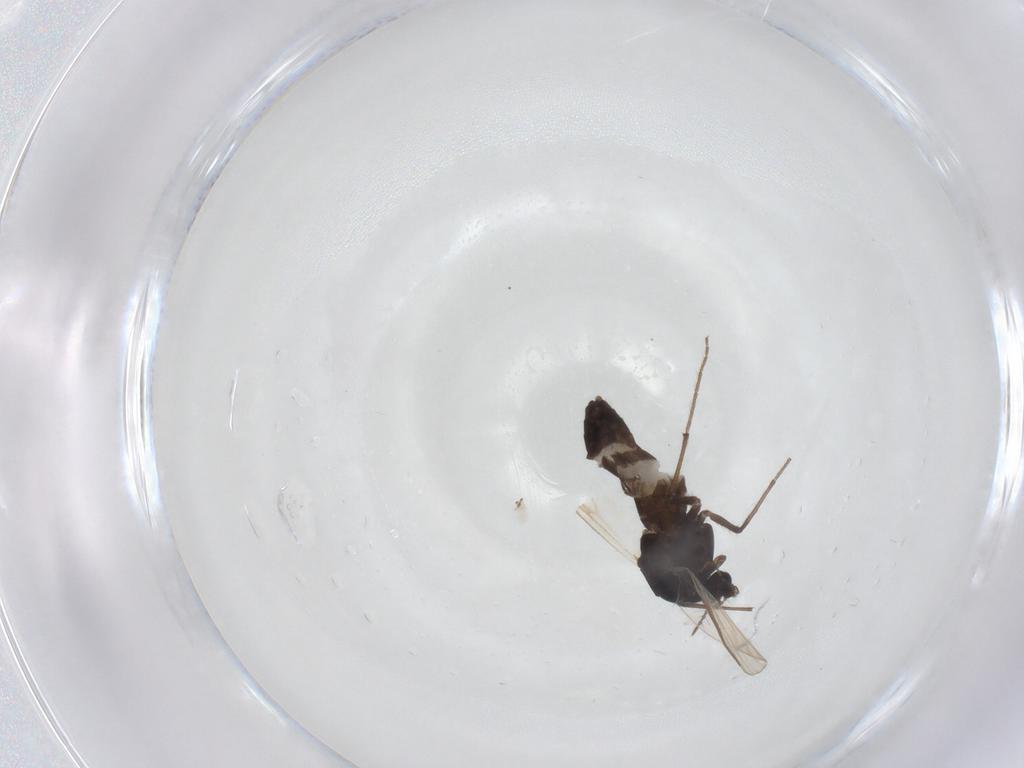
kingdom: Animalia
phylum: Arthropoda
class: Insecta
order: Diptera
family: Chironomidae
